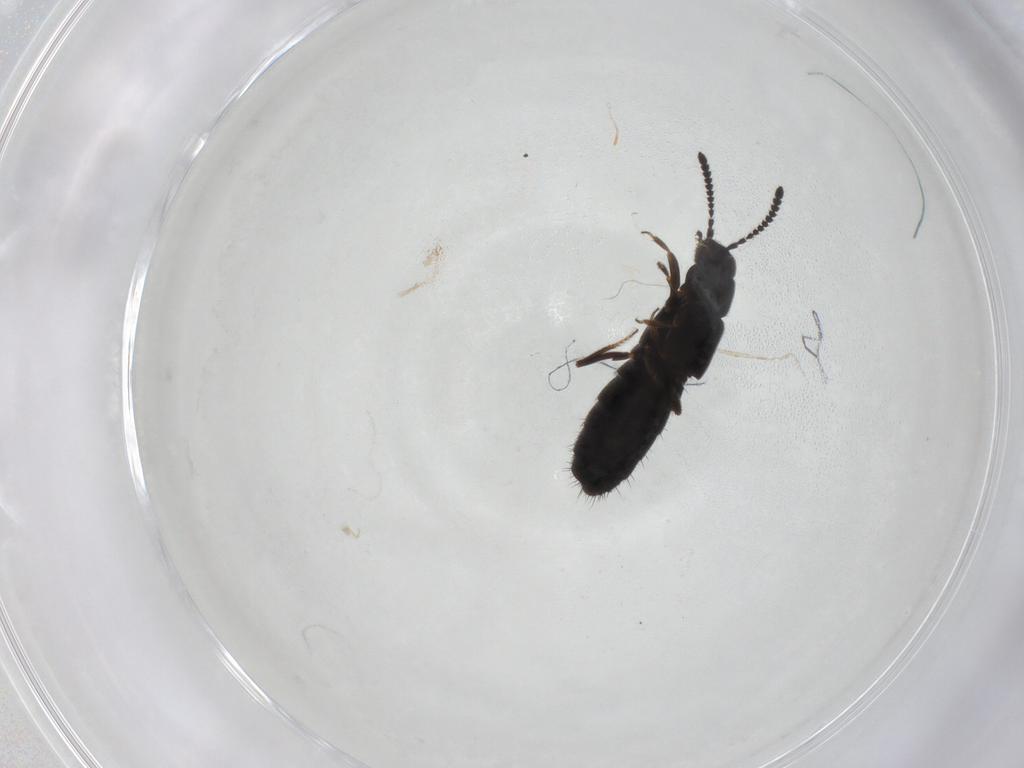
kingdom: Animalia
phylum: Arthropoda
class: Insecta
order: Coleoptera
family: Staphylinidae
